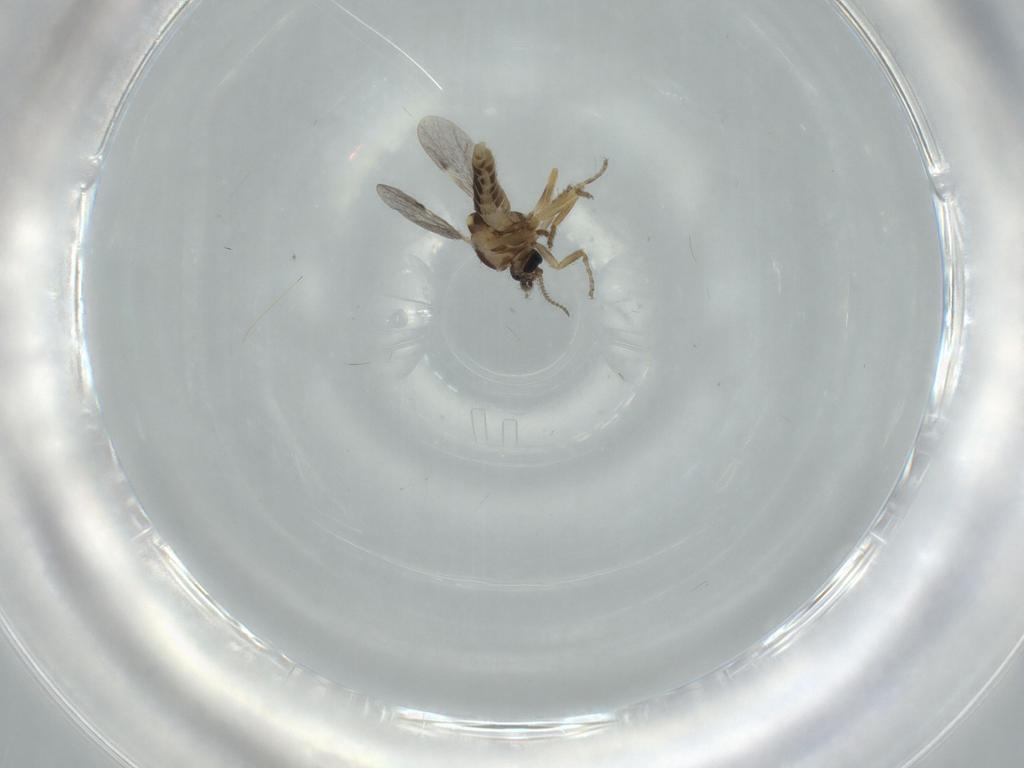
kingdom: Animalia
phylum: Arthropoda
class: Insecta
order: Diptera
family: Ceratopogonidae
